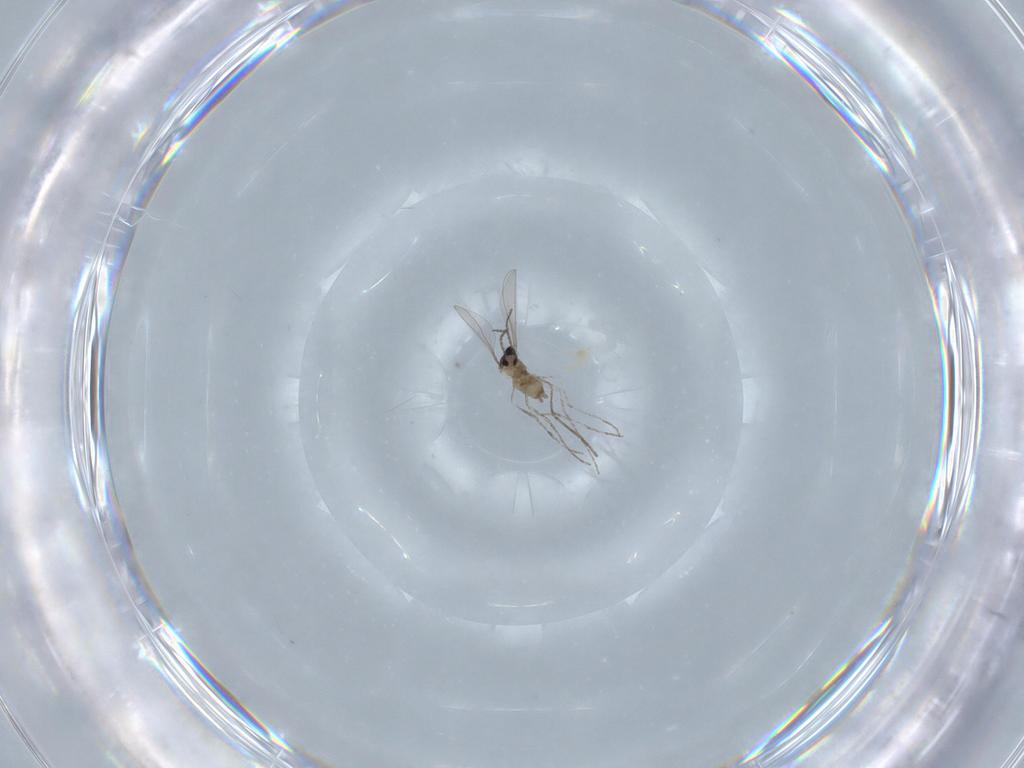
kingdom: Animalia
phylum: Arthropoda
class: Insecta
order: Diptera
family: Cecidomyiidae
